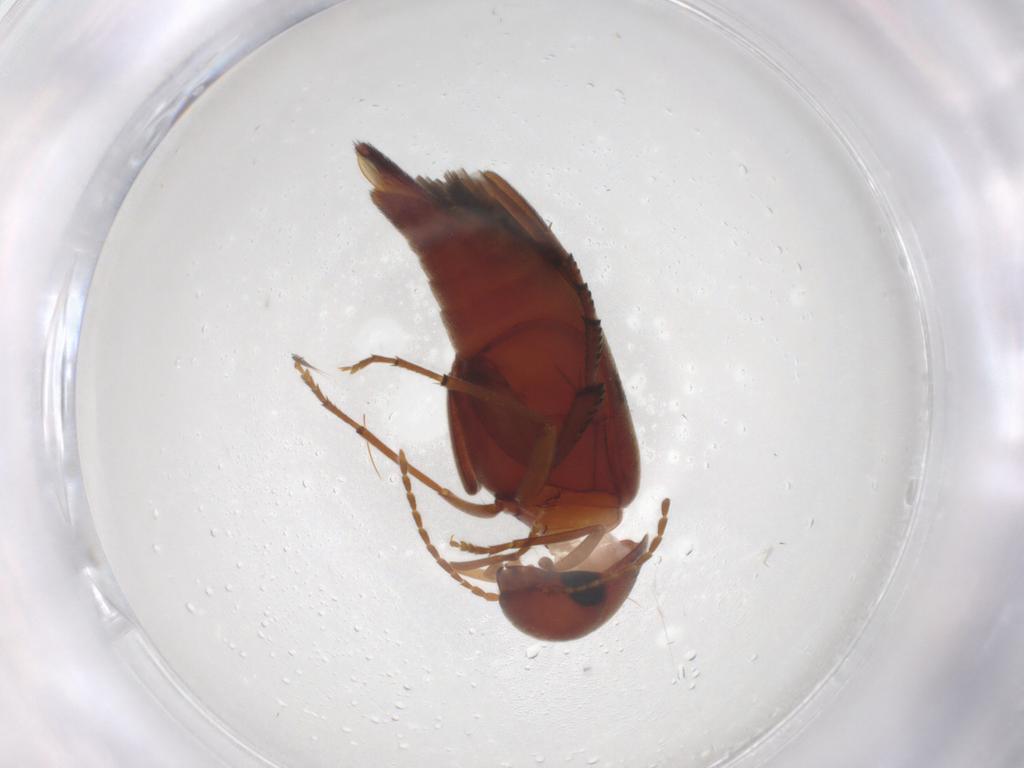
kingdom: Animalia
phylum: Arthropoda
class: Insecta
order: Coleoptera
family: Mordellidae
